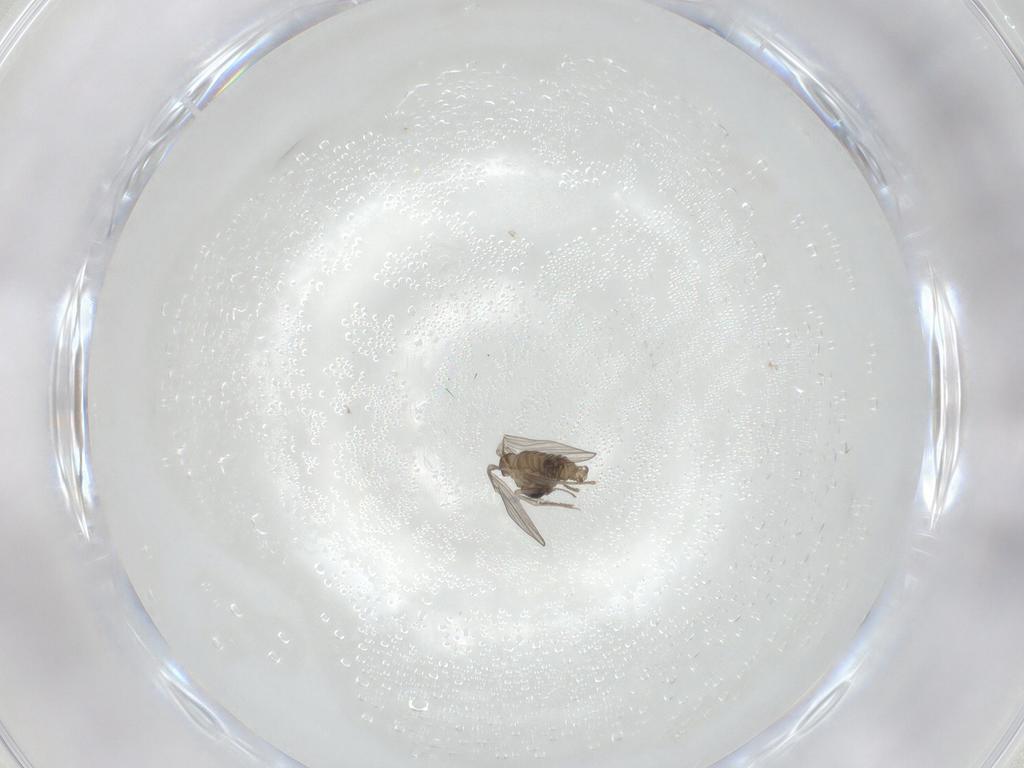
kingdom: Animalia
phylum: Arthropoda
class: Insecta
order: Diptera
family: Psychodidae
